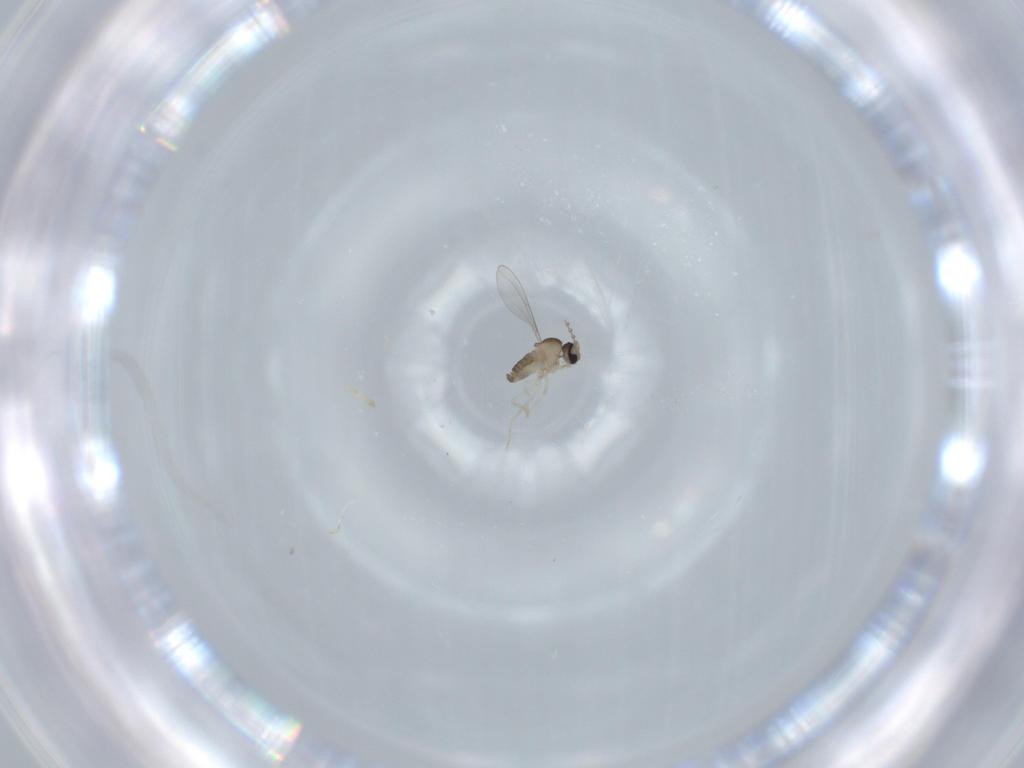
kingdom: Animalia
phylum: Arthropoda
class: Insecta
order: Diptera
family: Cecidomyiidae
